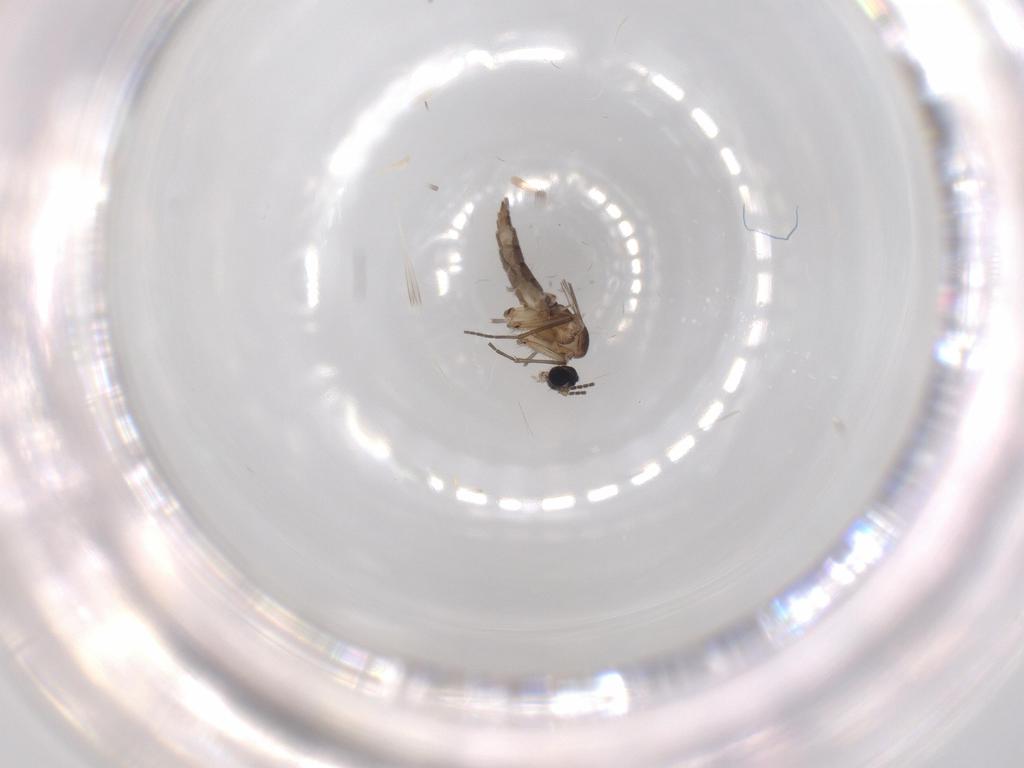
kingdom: Animalia
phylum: Arthropoda
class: Insecta
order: Diptera
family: Sciaridae
